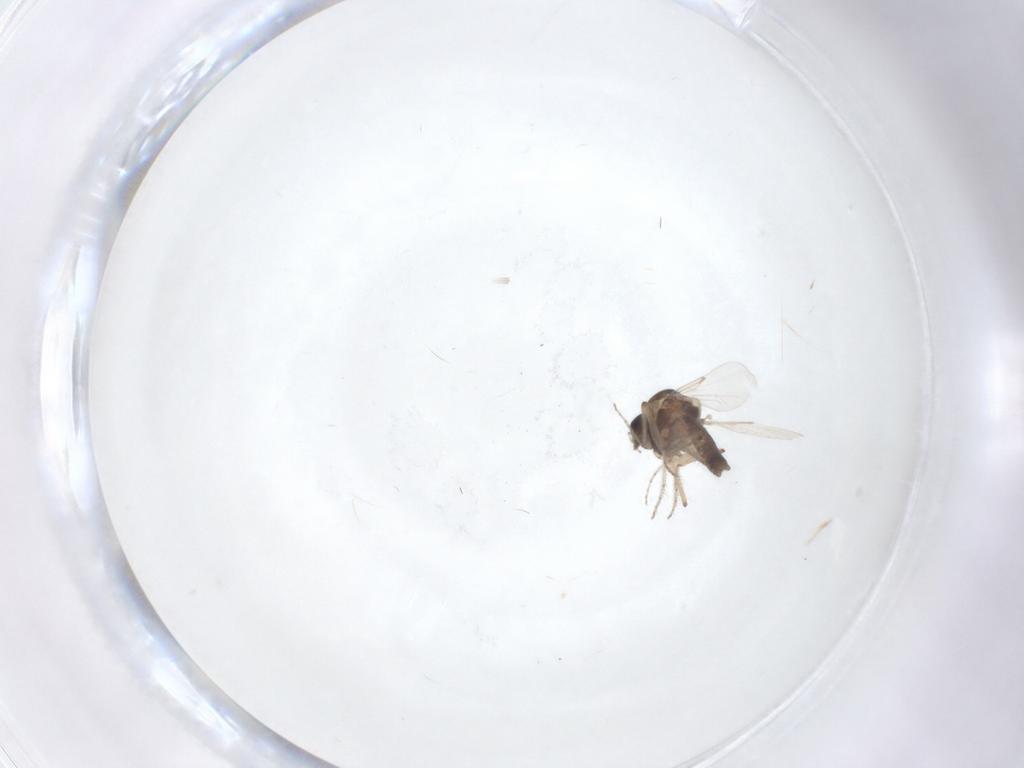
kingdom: Animalia
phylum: Arthropoda
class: Insecta
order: Diptera
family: Ceratopogonidae
